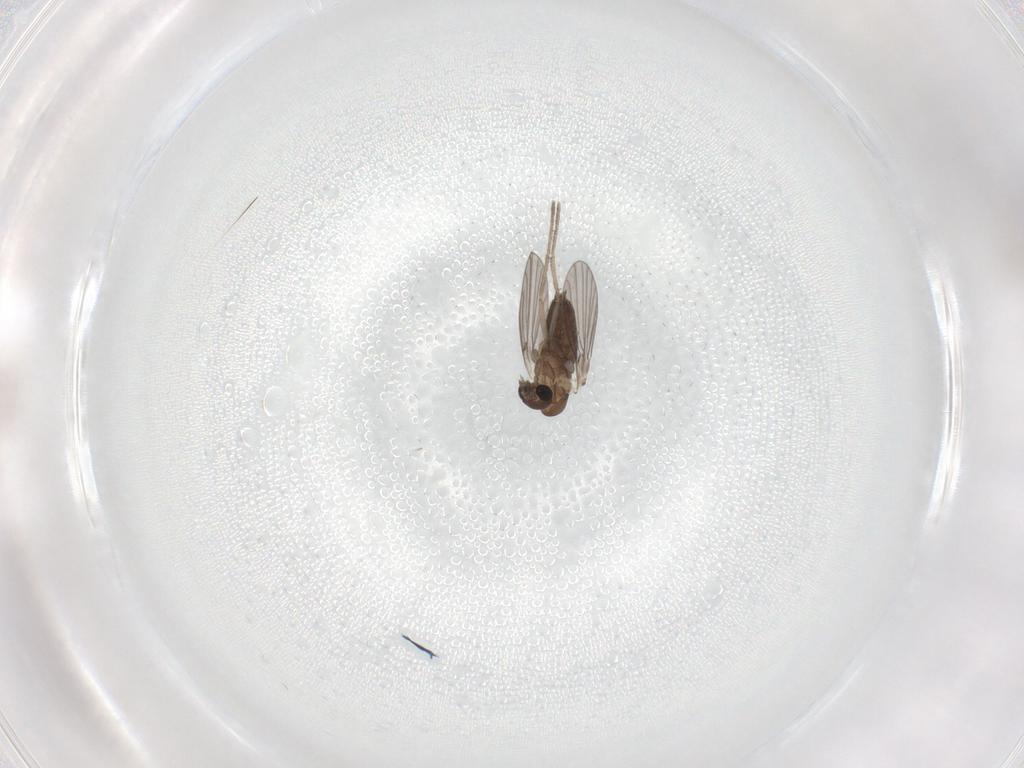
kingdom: Animalia
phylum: Arthropoda
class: Insecta
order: Diptera
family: Psychodidae
